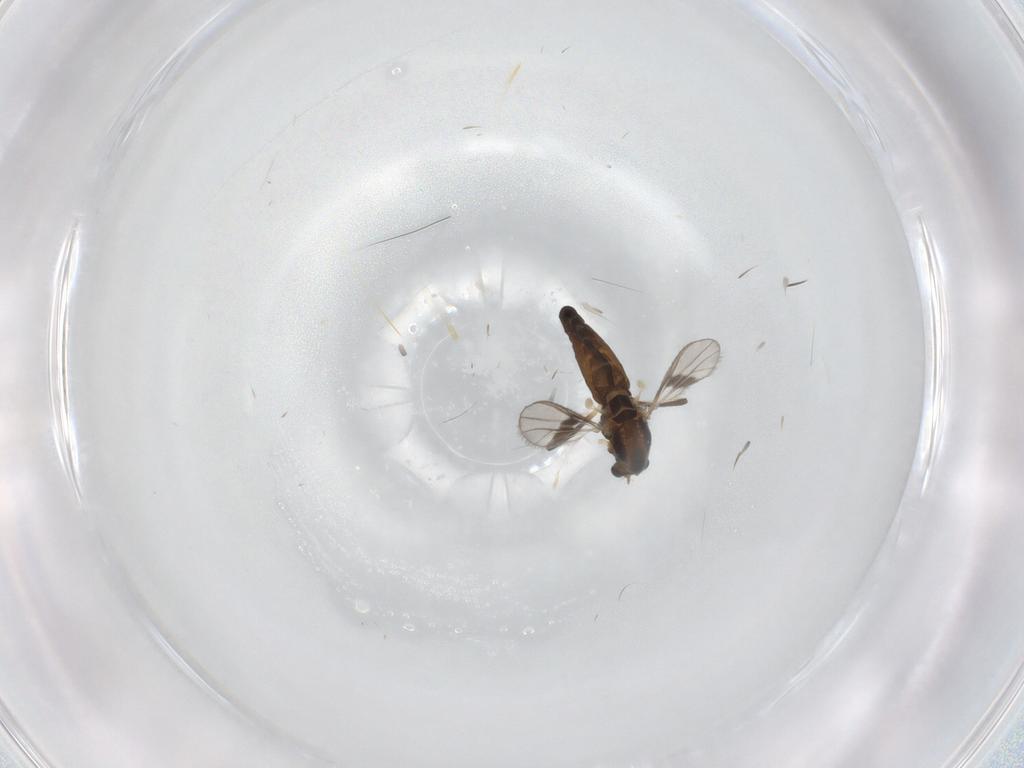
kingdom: Animalia
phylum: Arthropoda
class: Insecta
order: Diptera
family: Chironomidae
